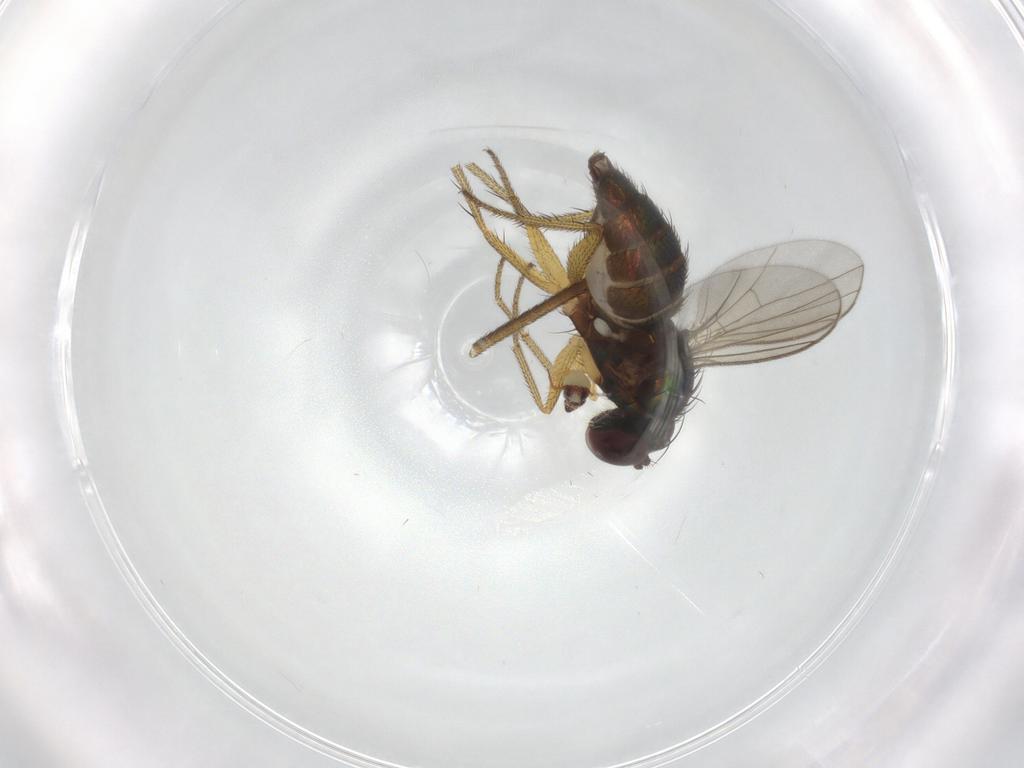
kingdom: Animalia
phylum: Arthropoda
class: Insecta
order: Diptera
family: Dolichopodidae
